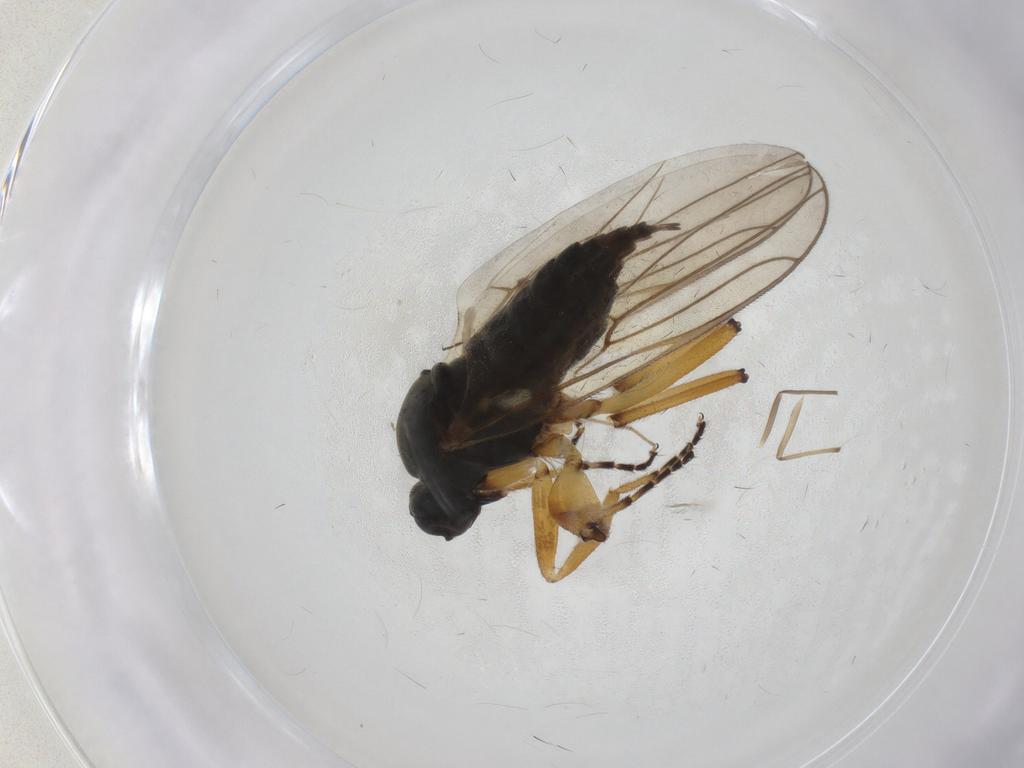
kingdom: Animalia
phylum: Arthropoda
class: Insecta
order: Diptera
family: Hybotidae
